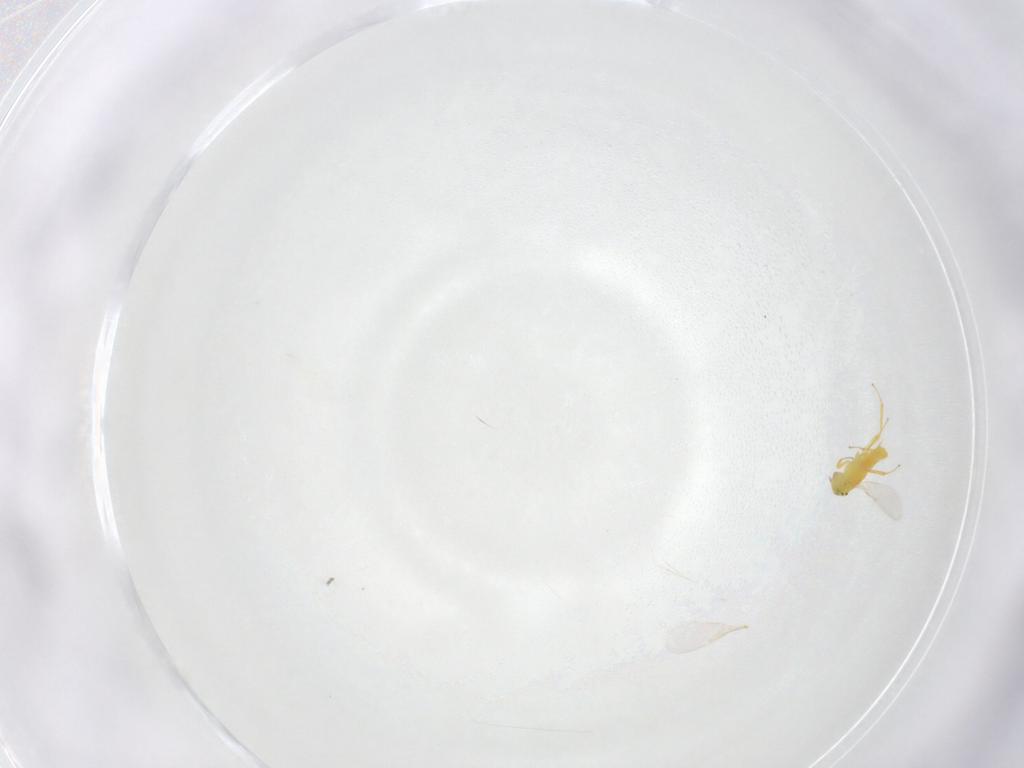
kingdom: Animalia
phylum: Arthropoda
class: Insecta
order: Hymenoptera
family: Aphelinidae
